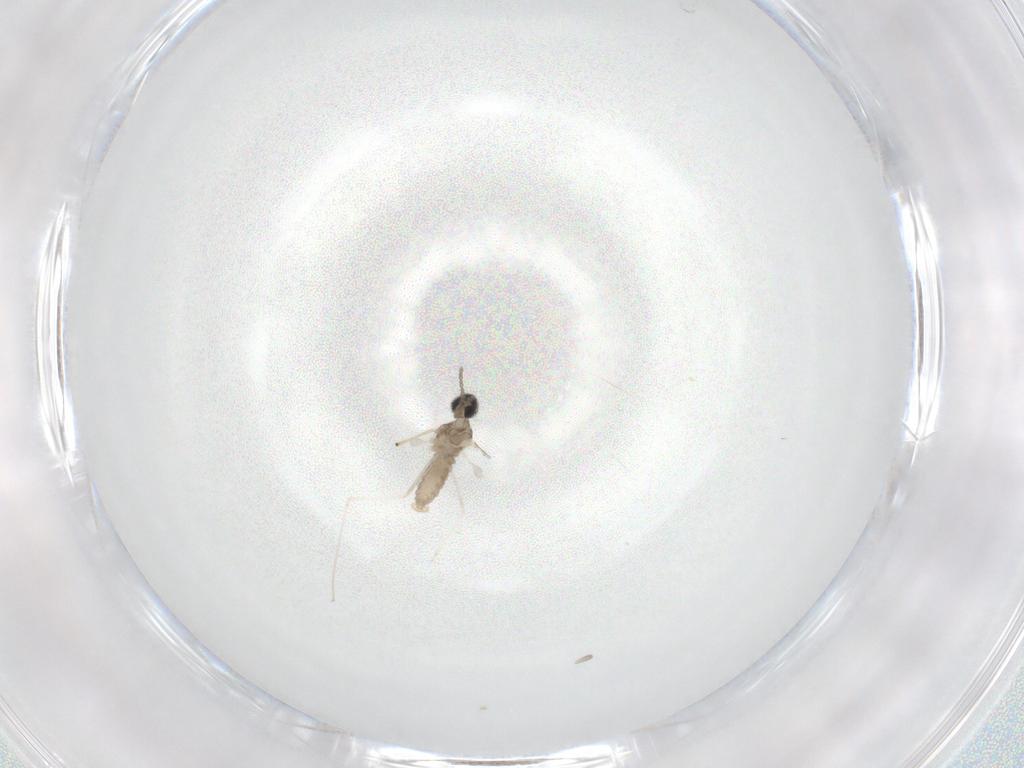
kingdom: Animalia
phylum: Arthropoda
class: Insecta
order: Diptera
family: Cecidomyiidae
